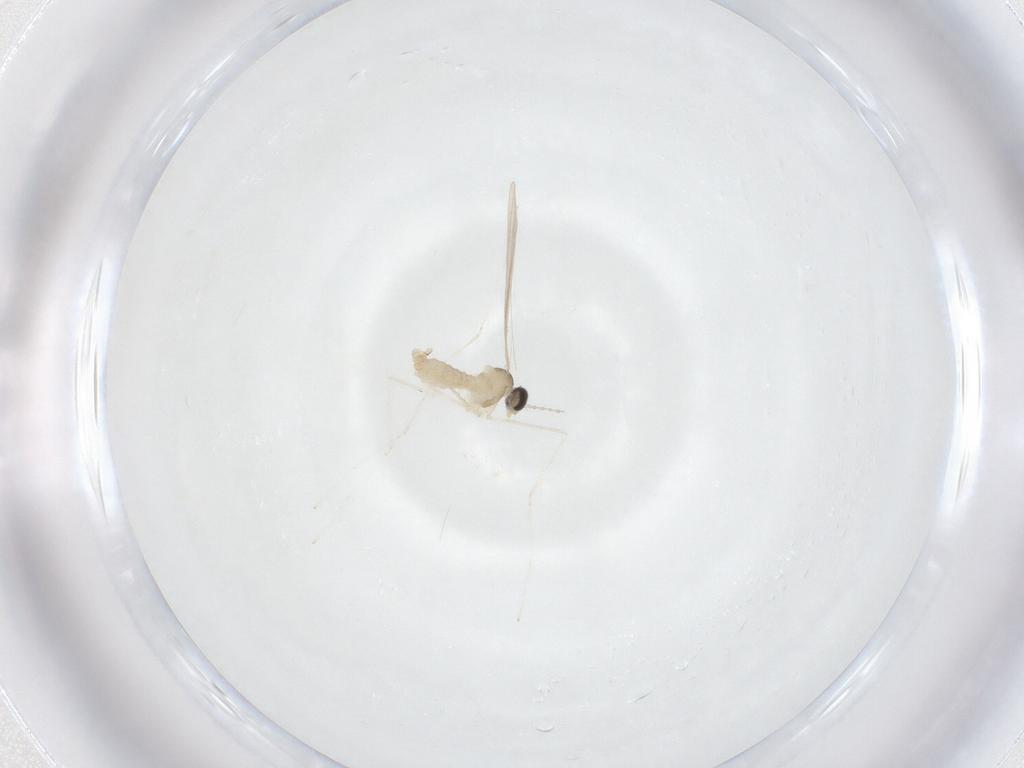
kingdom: Animalia
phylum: Arthropoda
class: Insecta
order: Diptera
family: Cecidomyiidae
